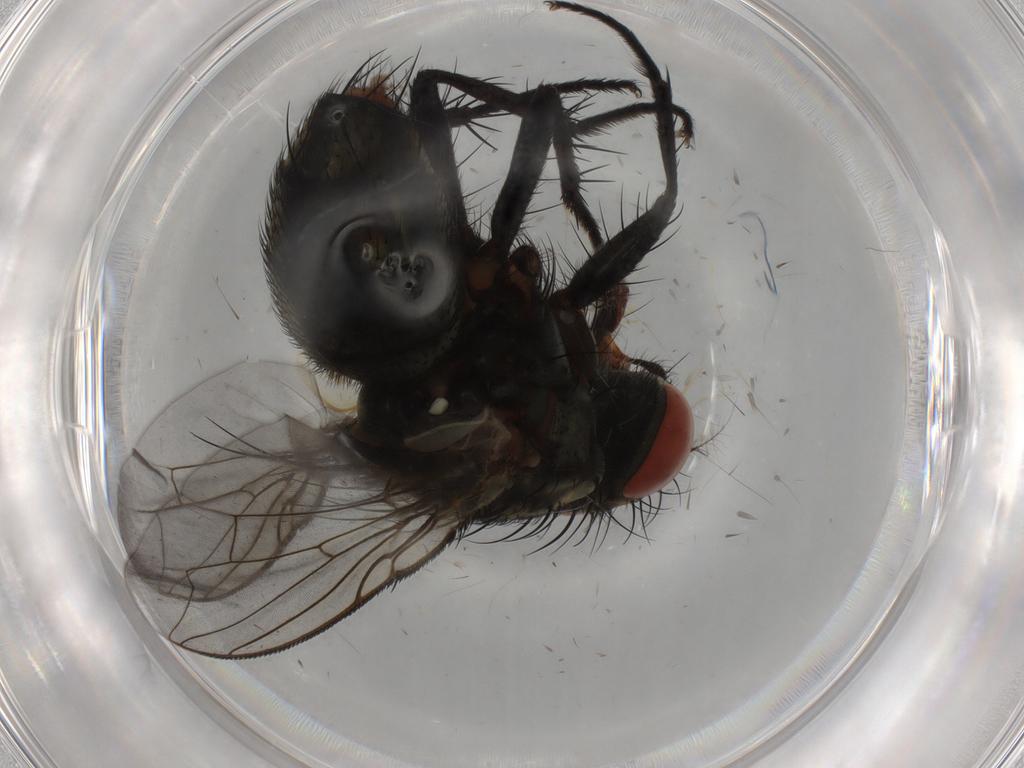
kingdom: Animalia
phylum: Arthropoda
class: Insecta
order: Diptera
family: Sarcophagidae
